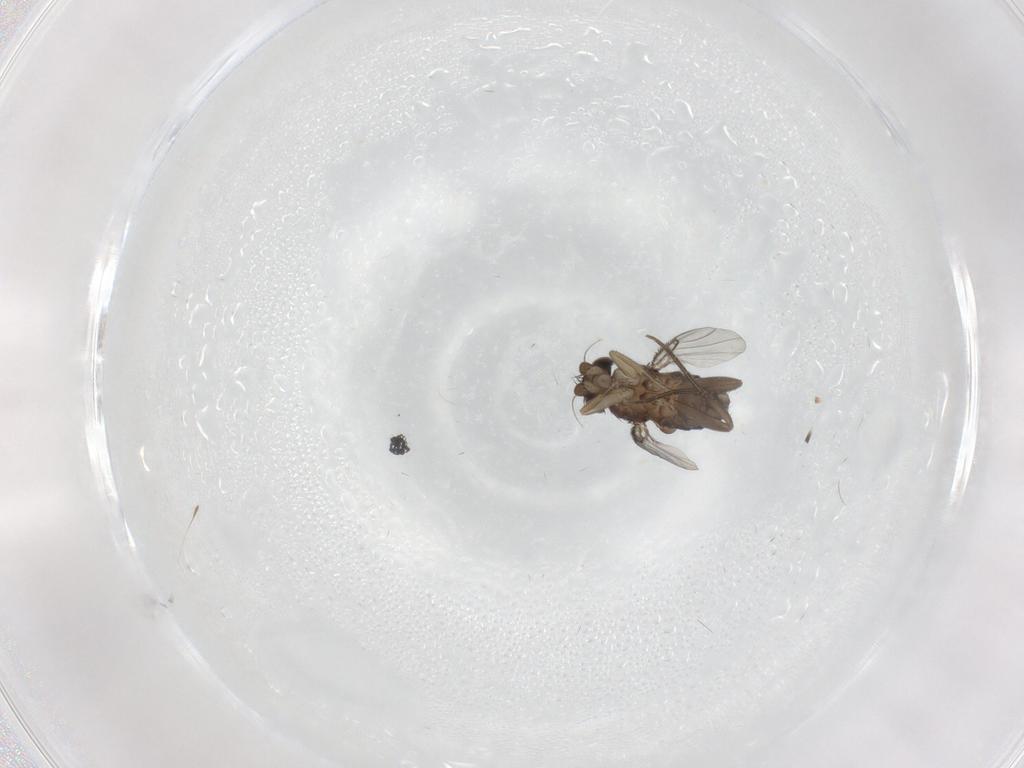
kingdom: Animalia
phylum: Arthropoda
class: Insecta
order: Diptera
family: Phoridae
